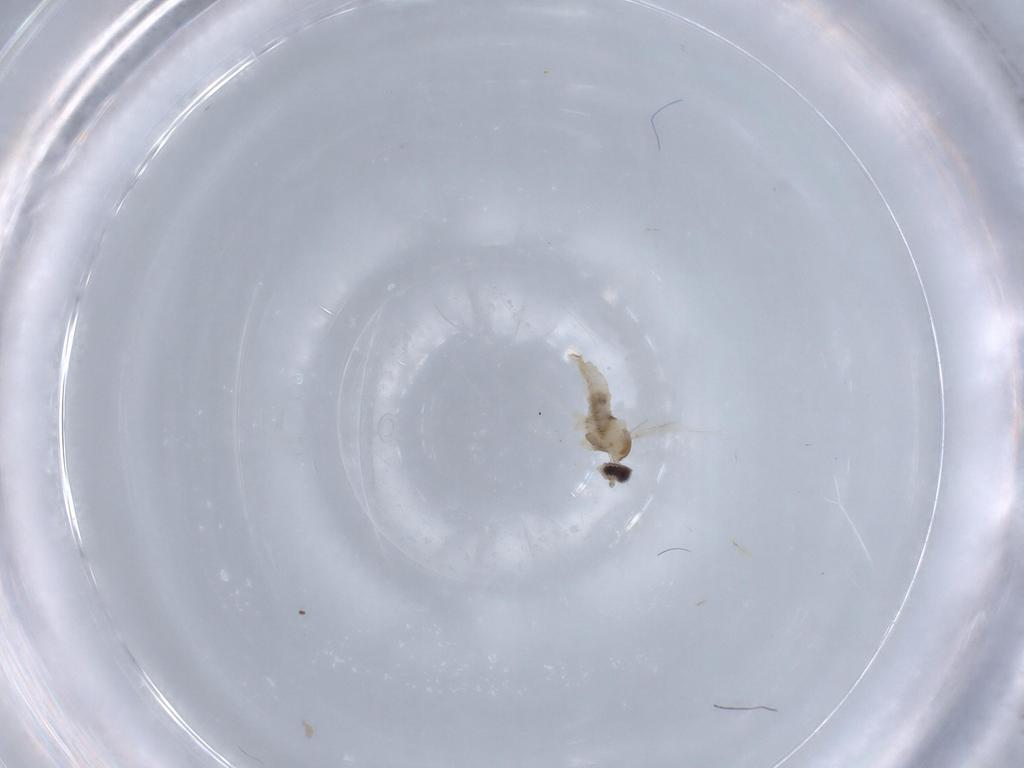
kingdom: Animalia
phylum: Arthropoda
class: Insecta
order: Diptera
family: Cecidomyiidae
